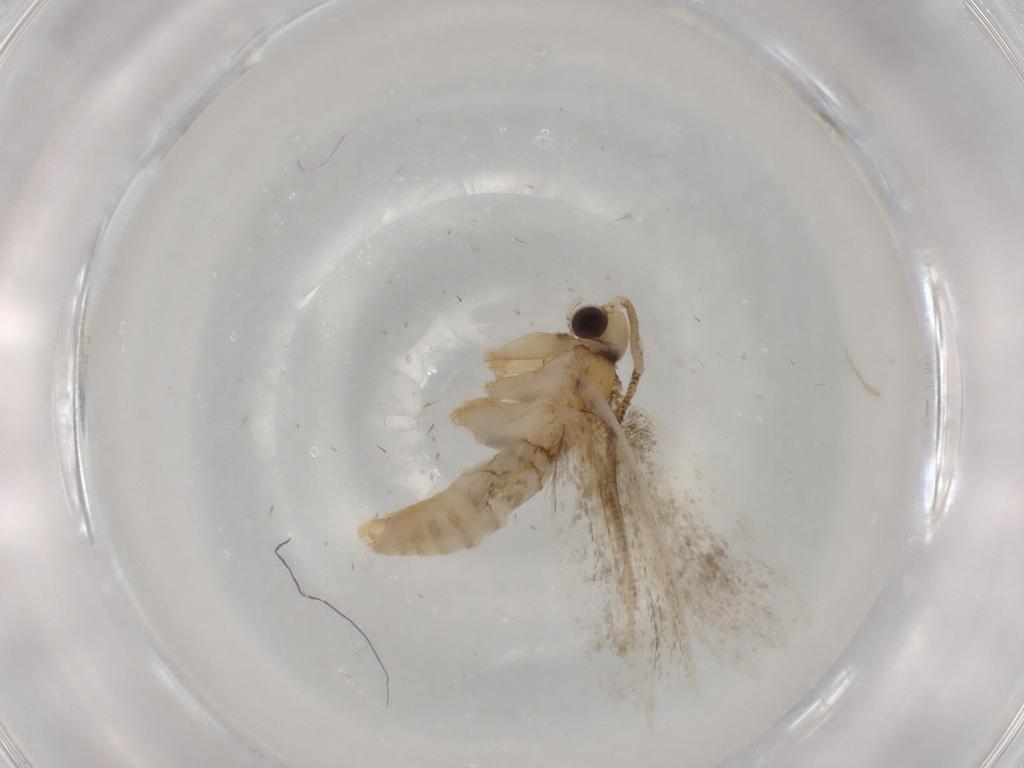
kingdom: Animalia
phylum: Arthropoda
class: Insecta
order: Lepidoptera
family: Tineidae
